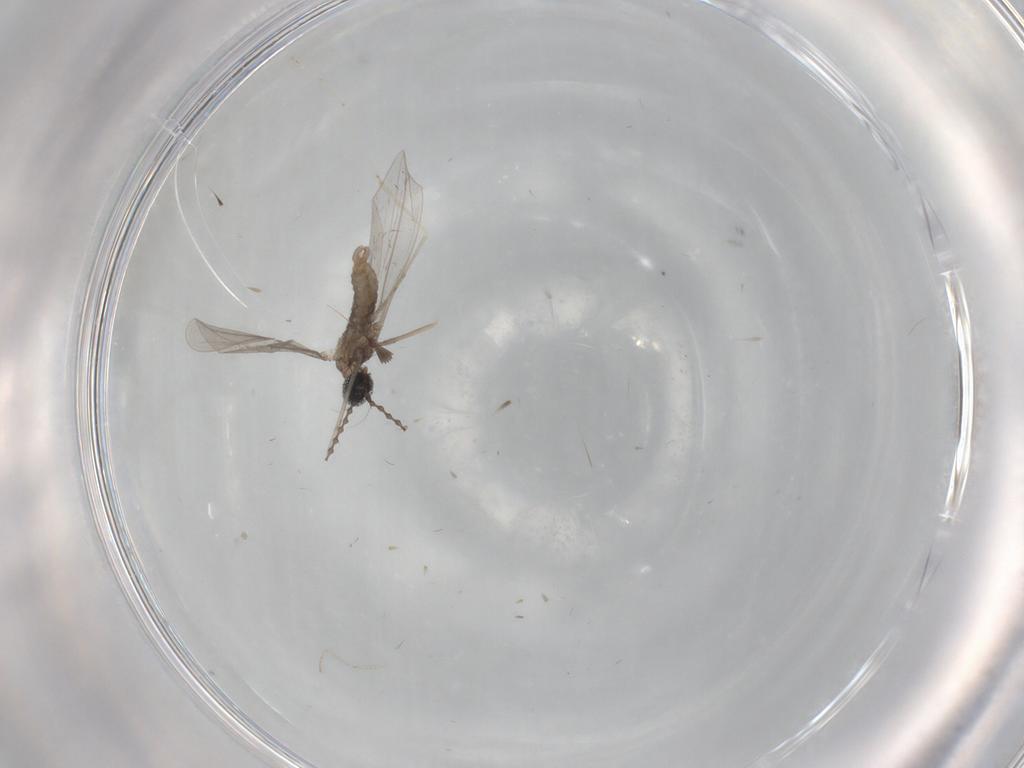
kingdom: Animalia
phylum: Arthropoda
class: Insecta
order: Diptera
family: Cecidomyiidae
